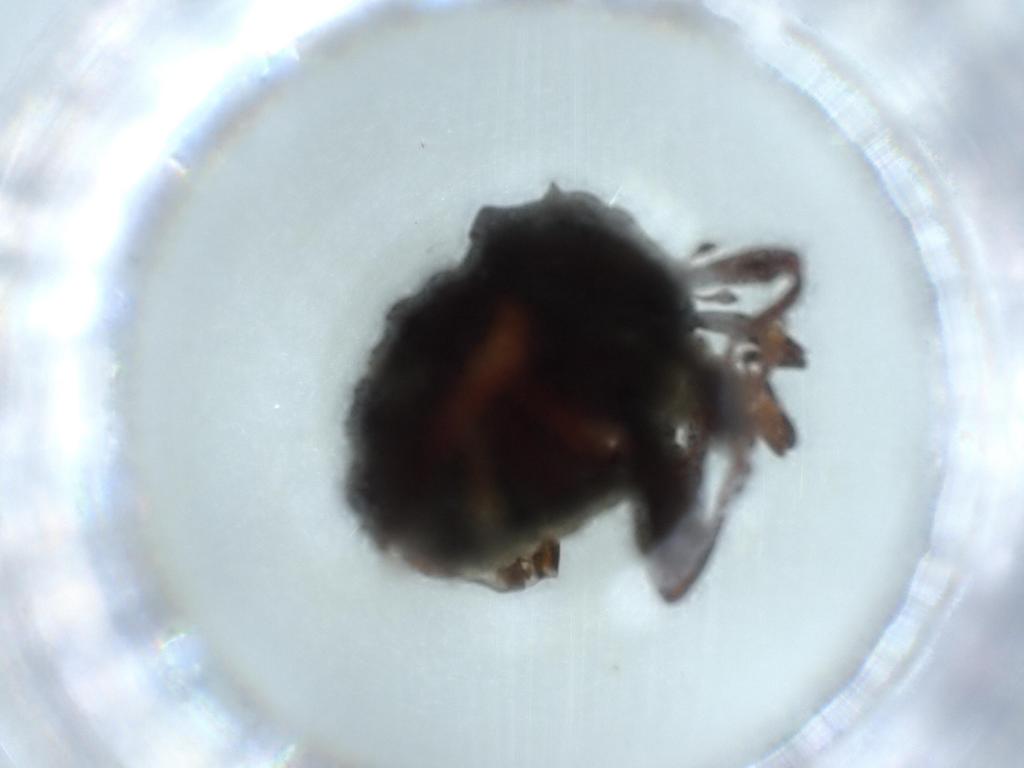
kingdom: Animalia
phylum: Arthropoda
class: Insecta
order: Coleoptera
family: Curculionidae
